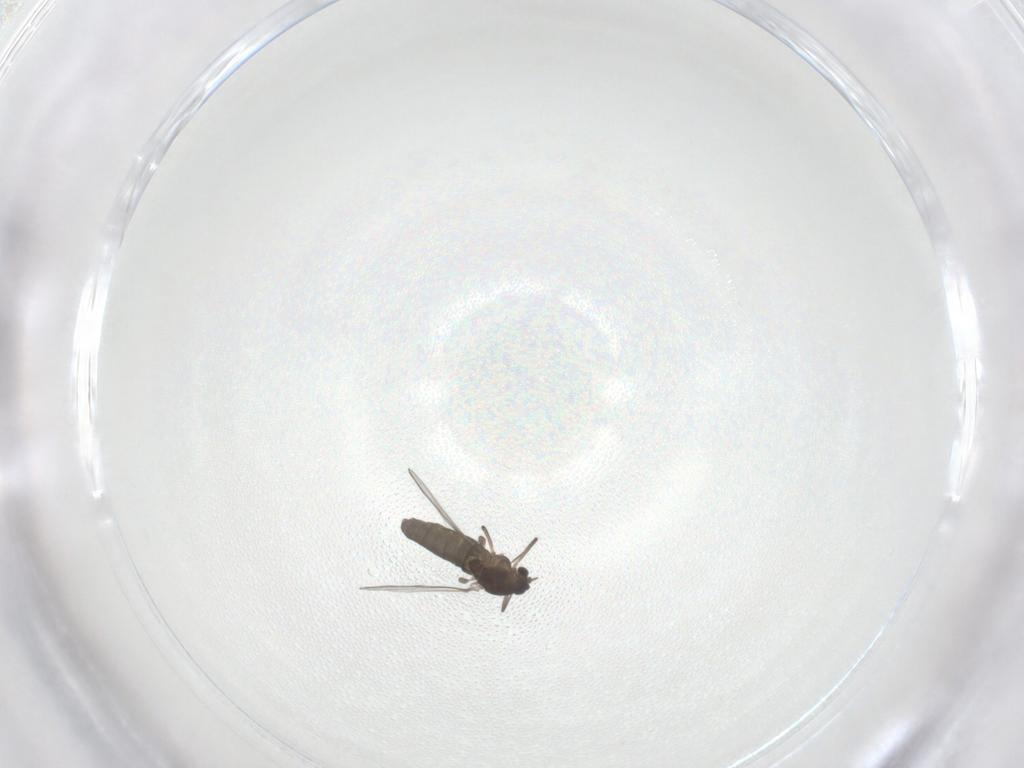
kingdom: Animalia
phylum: Arthropoda
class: Insecta
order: Diptera
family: Chironomidae
